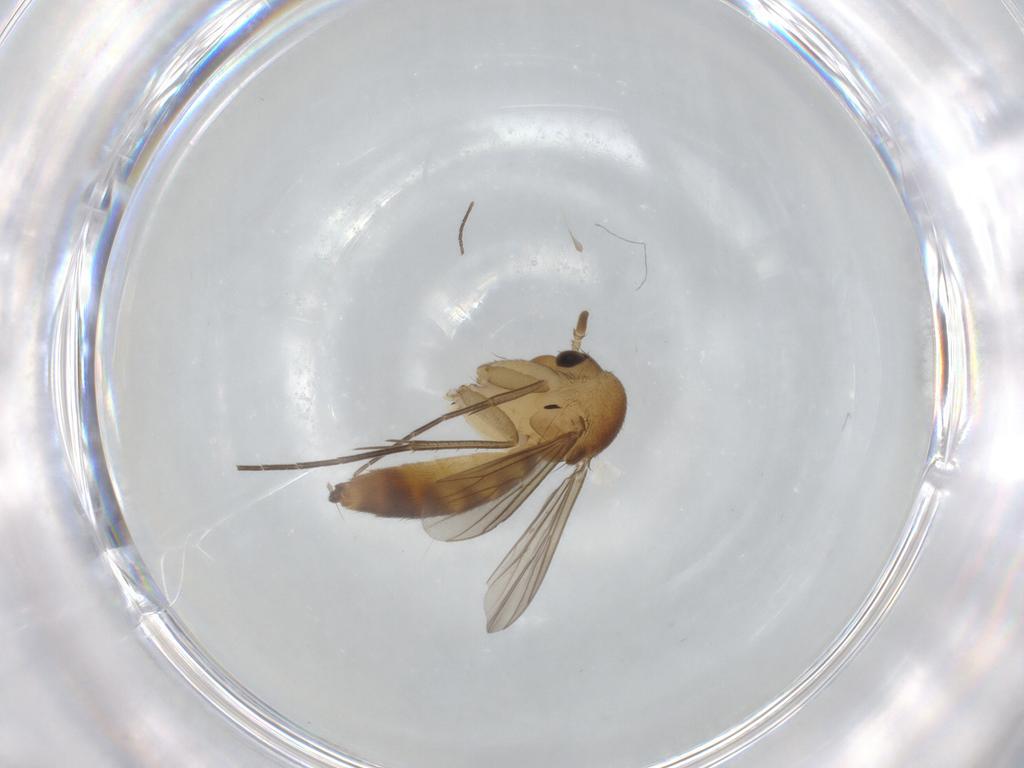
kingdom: Animalia
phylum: Arthropoda
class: Insecta
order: Diptera
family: Mycetophilidae
